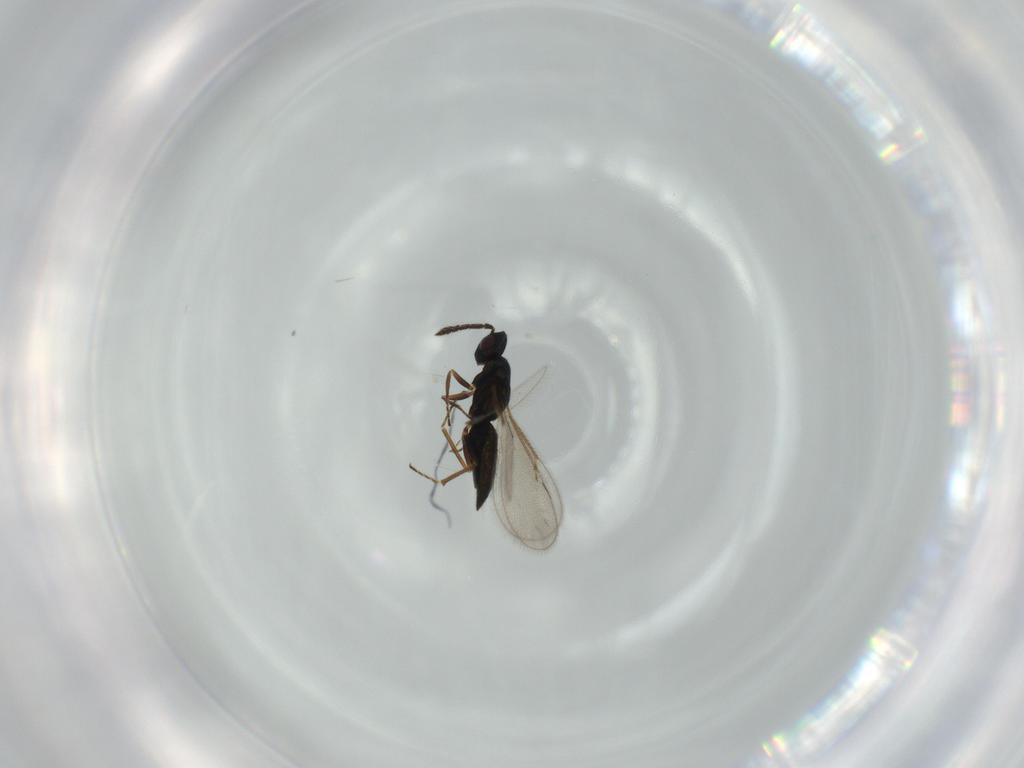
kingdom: Animalia
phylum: Arthropoda
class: Insecta
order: Hymenoptera
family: Eulophidae
